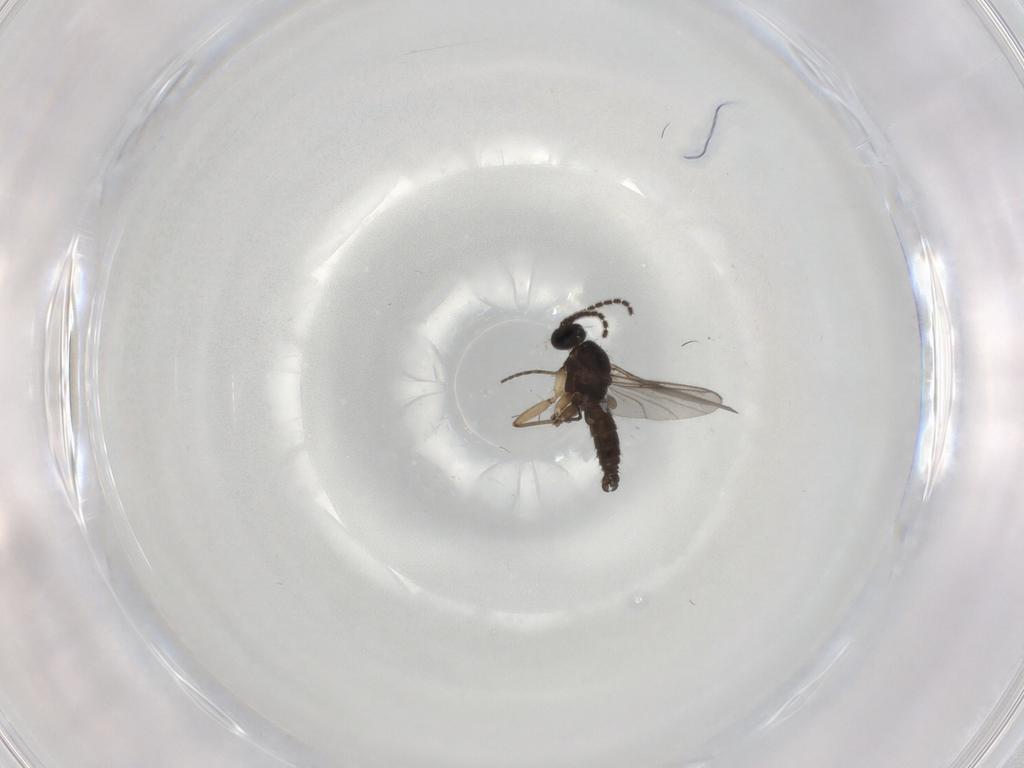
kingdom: Animalia
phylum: Arthropoda
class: Insecta
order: Diptera
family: Sciaridae
